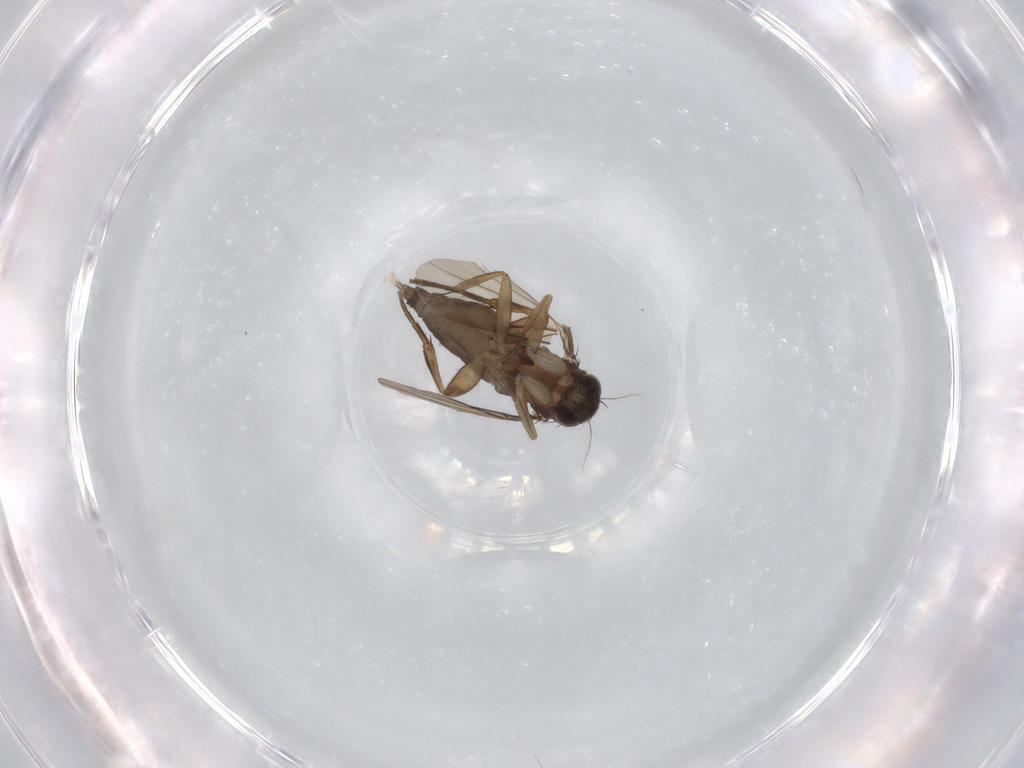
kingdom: Animalia
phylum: Arthropoda
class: Insecta
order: Diptera
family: Phoridae
